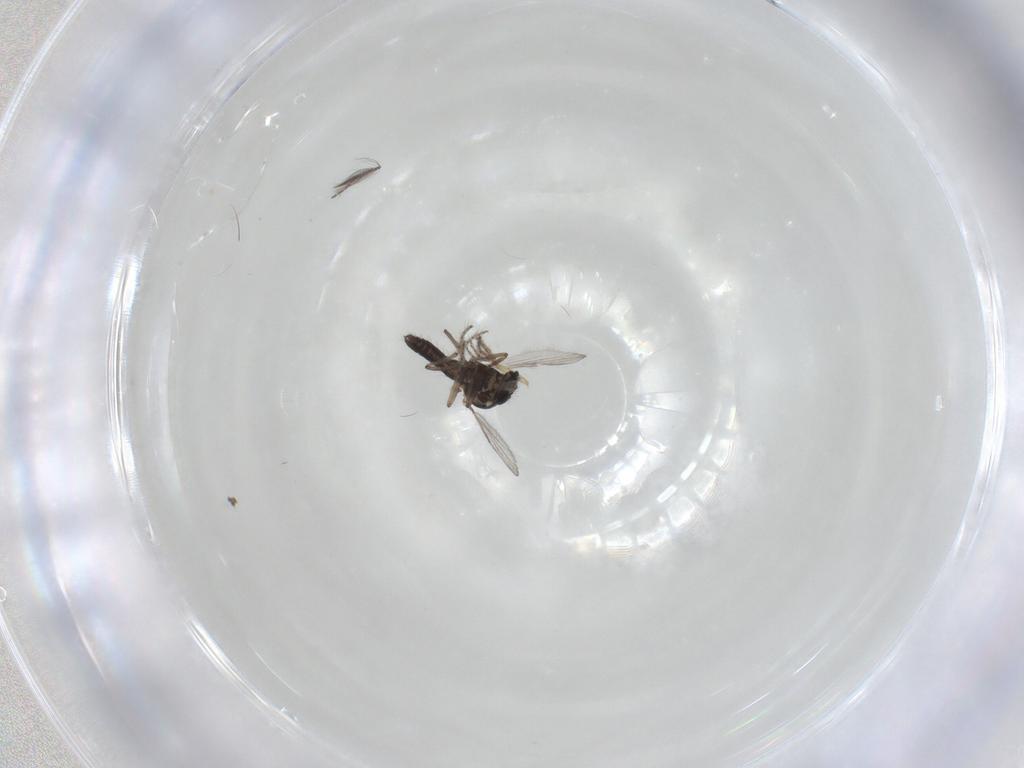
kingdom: Animalia
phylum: Arthropoda
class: Insecta
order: Diptera
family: Ceratopogonidae
